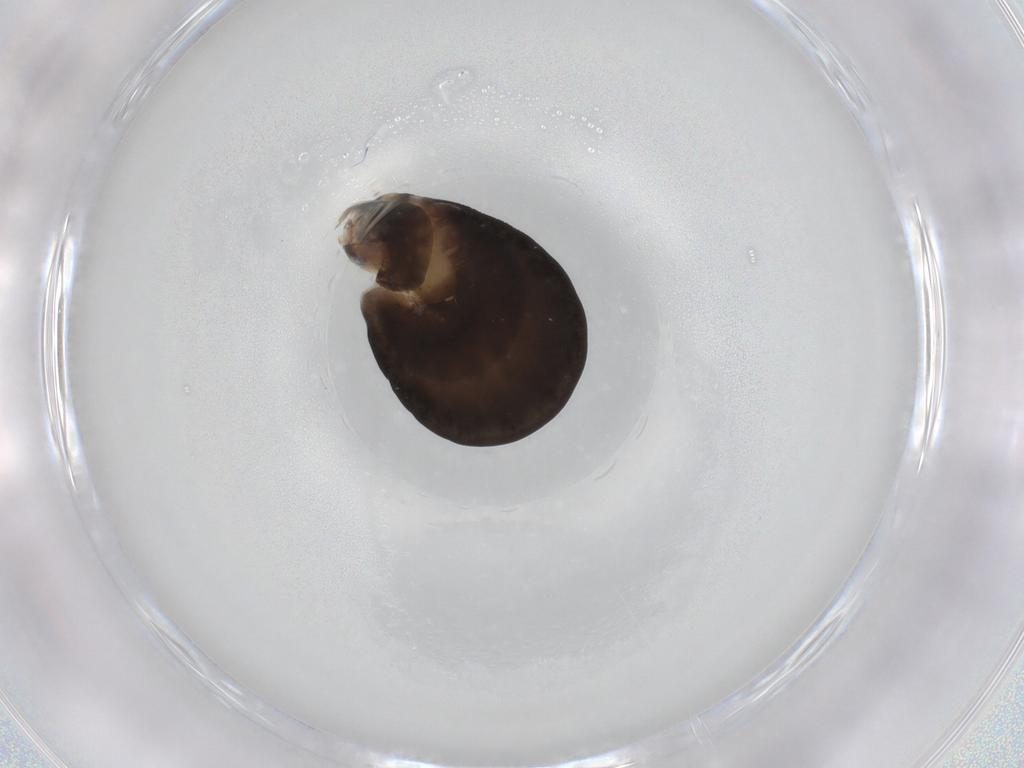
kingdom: Animalia
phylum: Arthropoda
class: Insecta
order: Hymenoptera
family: Dryinidae
